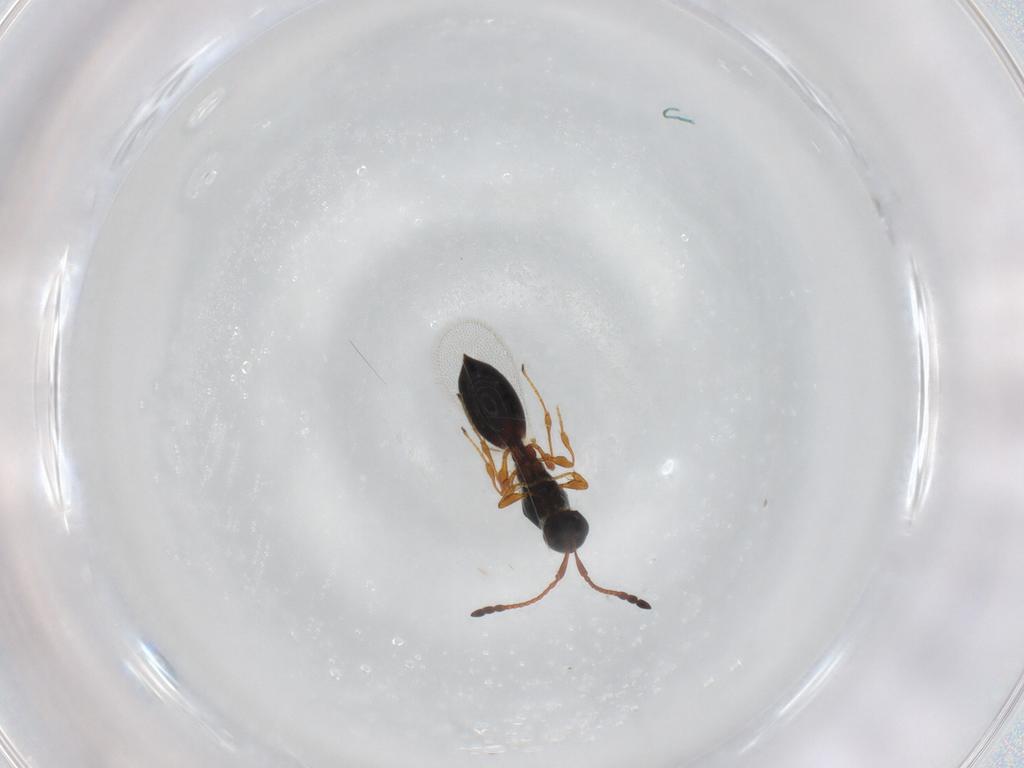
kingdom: Animalia
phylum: Arthropoda
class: Insecta
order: Hymenoptera
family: Diapriidae
